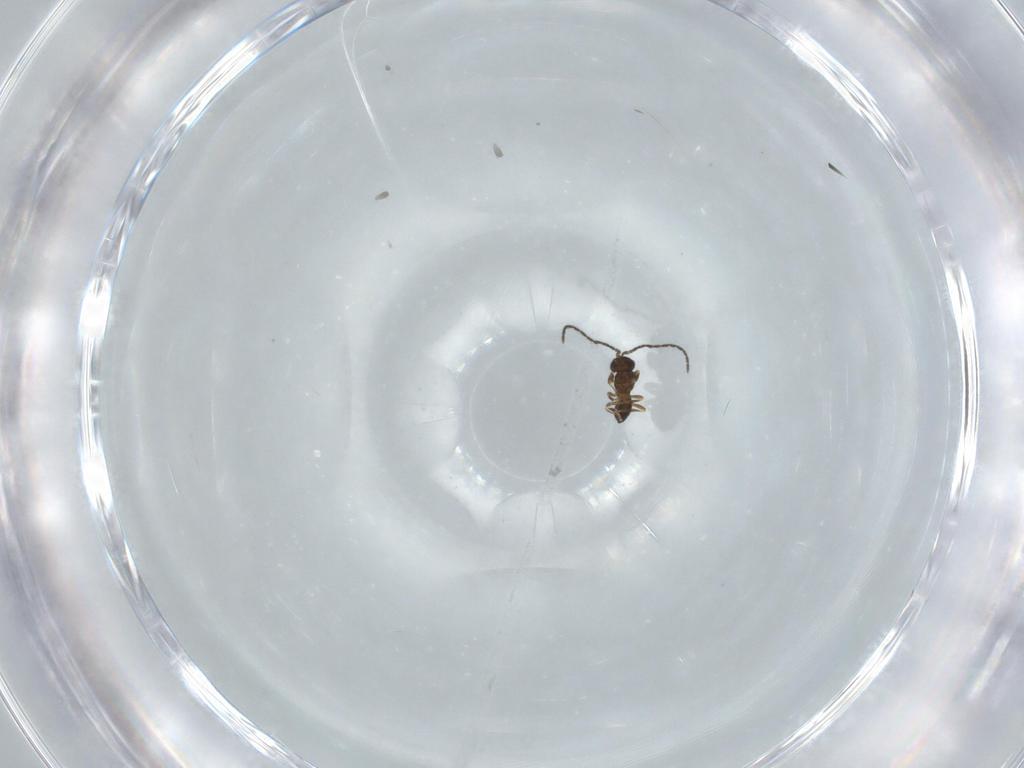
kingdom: Animalia
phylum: Arthropoda
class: Insecta
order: Hymenoptera
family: Scelionidae
